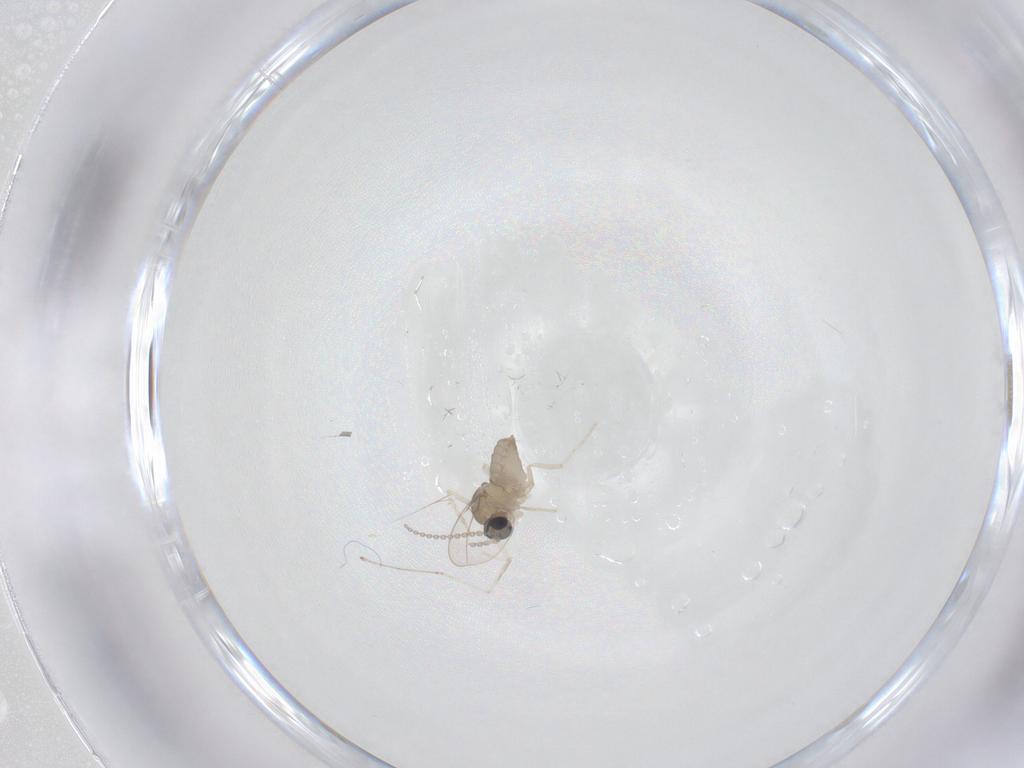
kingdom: Animalia
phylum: Arthropoda
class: Insecta
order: Diptera
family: Cecidomyiidae
